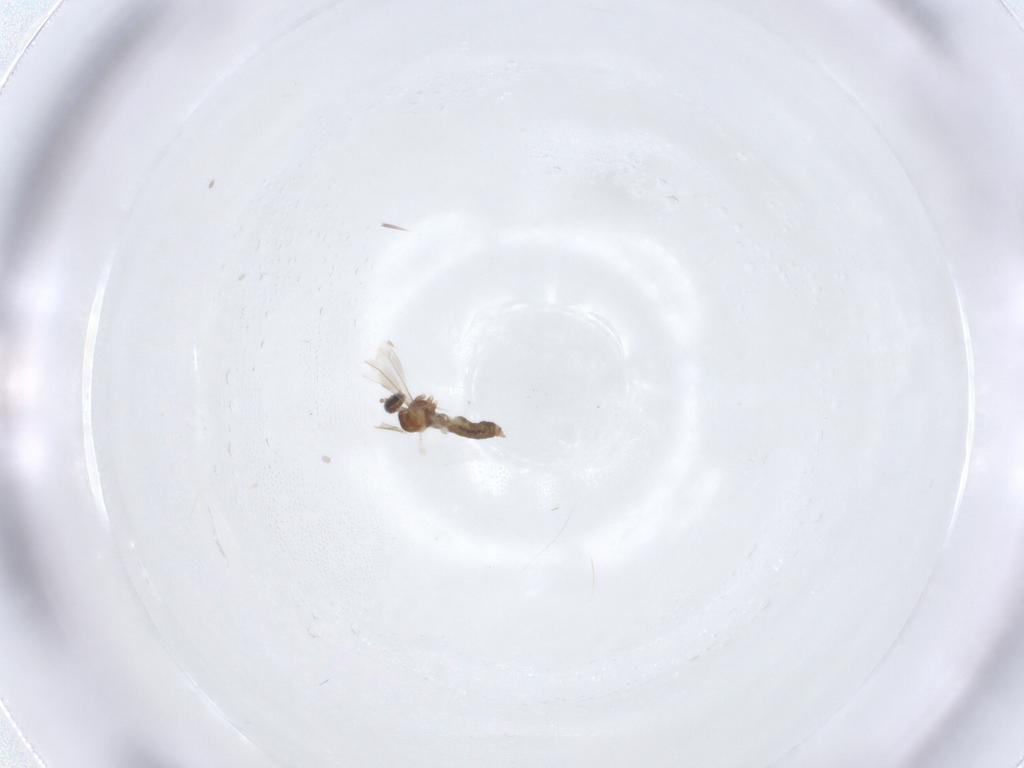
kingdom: Animalia
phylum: Arthropoda
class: Insecta
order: Diptera
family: Cecidomyiidae
